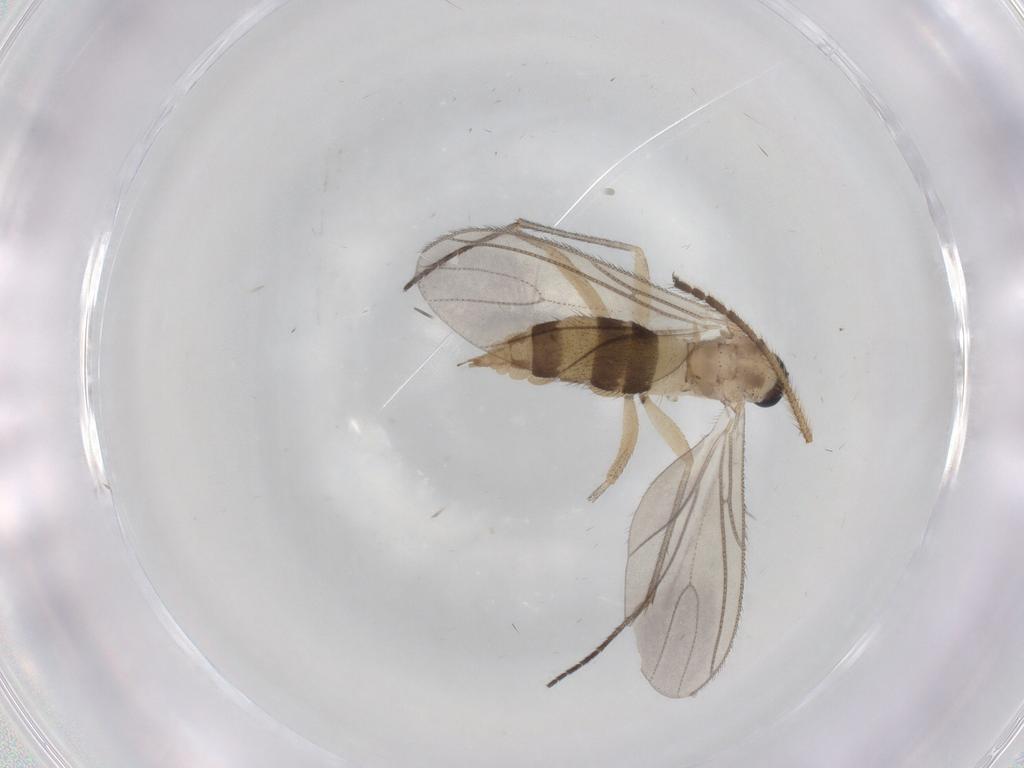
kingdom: Animalia
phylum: Arthropoda
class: Insecta
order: Diptera
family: Phoridae
